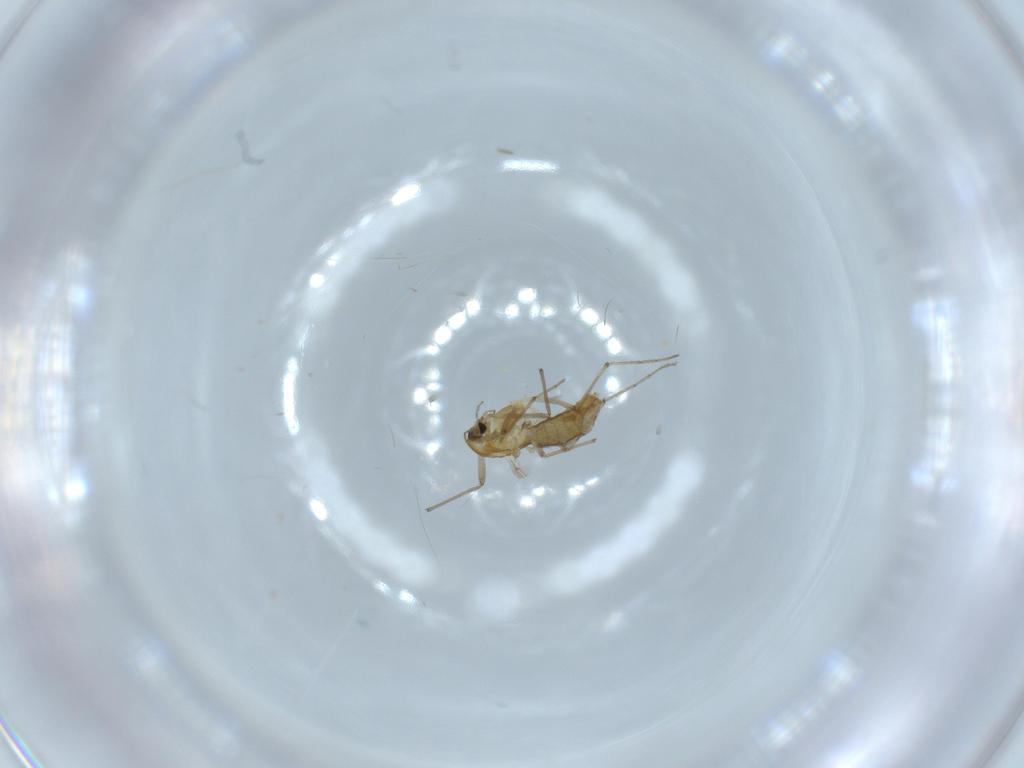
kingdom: Animalia
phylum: Arthropoda
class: Insecta
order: Diptera
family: Chironomidae
